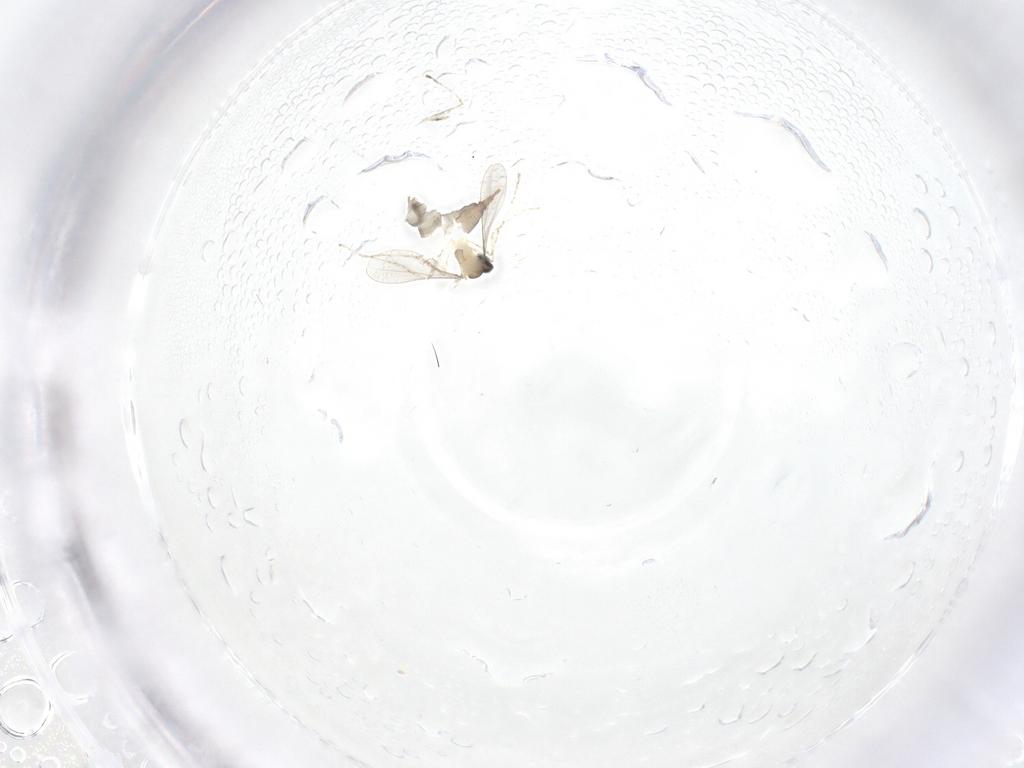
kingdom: Animalia
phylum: Arthropoda
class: Insecta
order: Diptera
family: Cecidomyiidae
